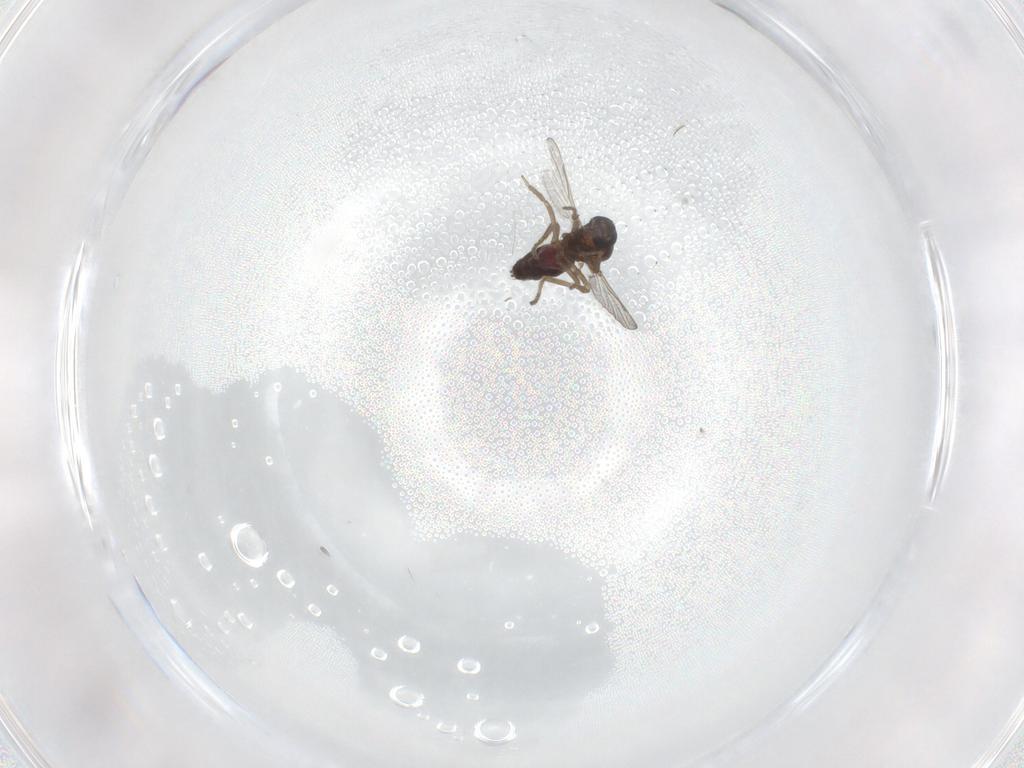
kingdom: Animalia
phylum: Arthropoda
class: Insecta
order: Diptera
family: Ceratopogonidae
